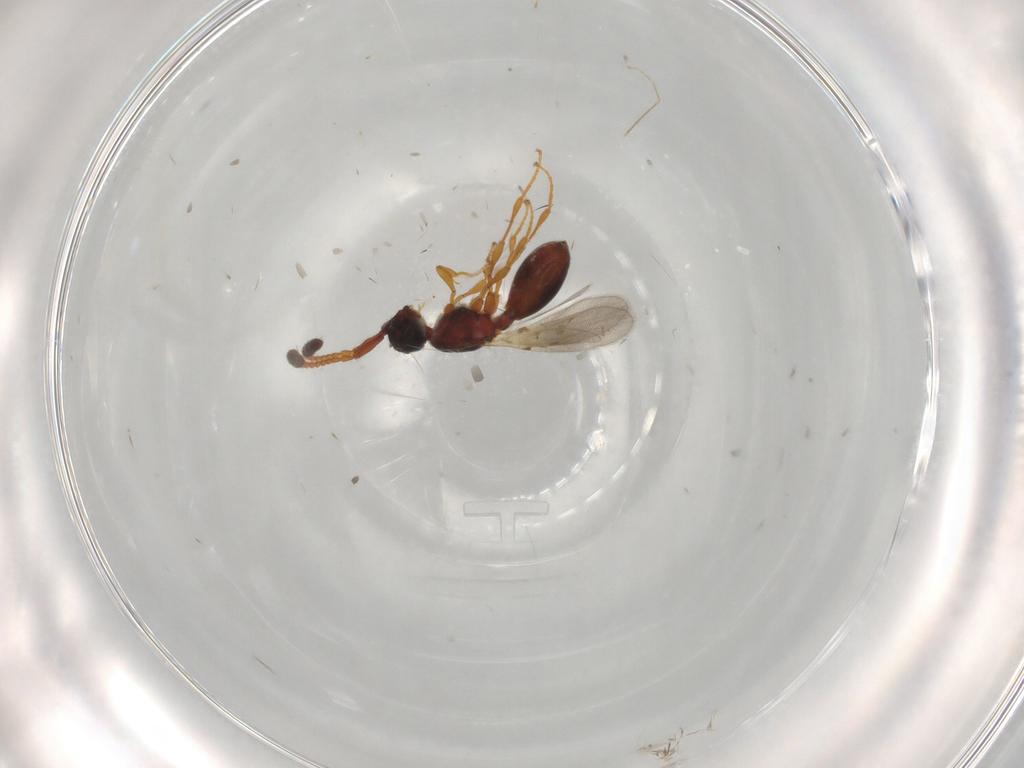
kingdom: Animalia
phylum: Arthropoda
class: Insecta
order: Hymenoptera
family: Diapriidae
